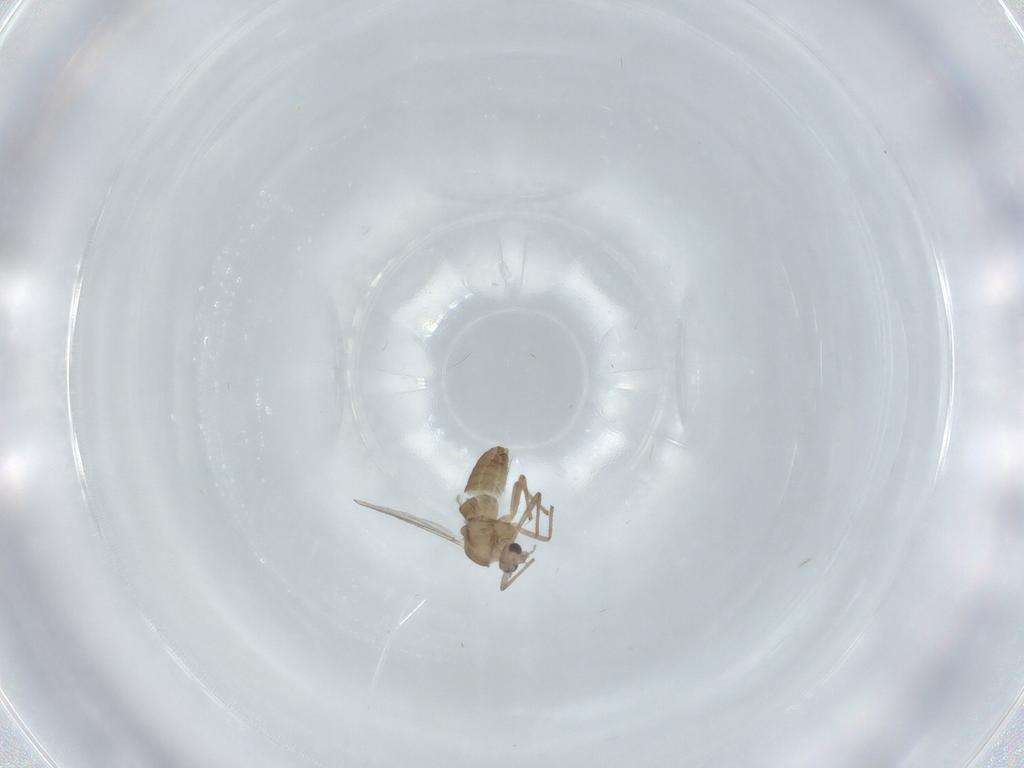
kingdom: Animalia
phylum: Arthropoda
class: Insecta
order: Diptera
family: Chironomidae
